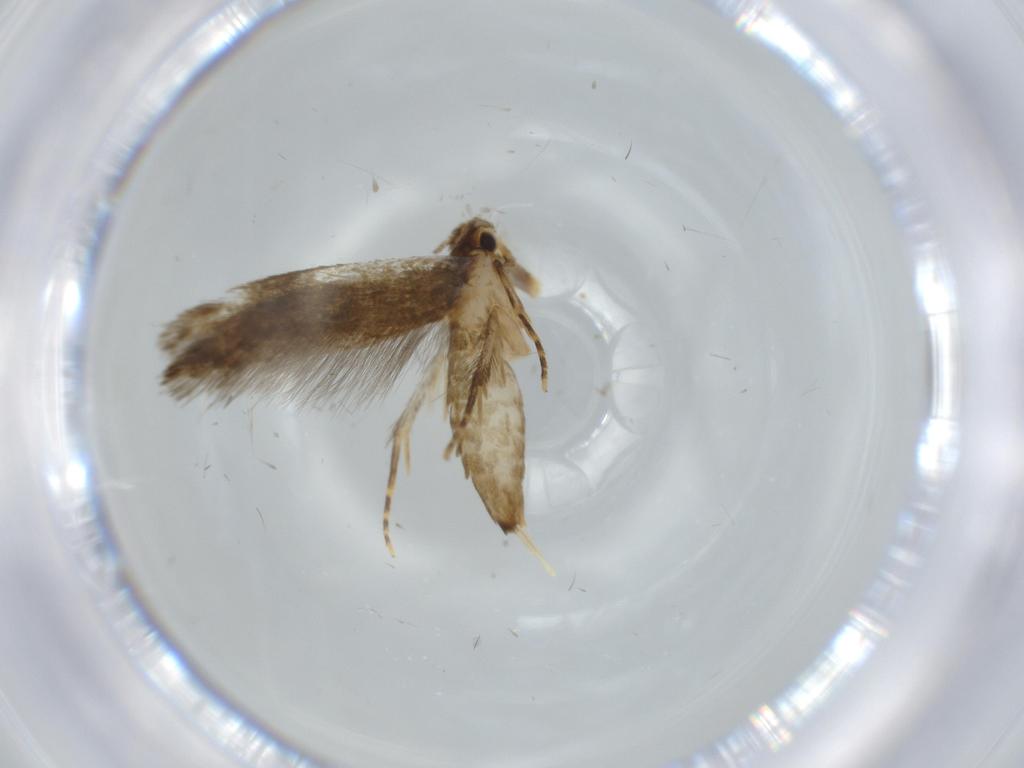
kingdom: Animalia
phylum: Arthropoda
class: Insecta
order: Lepidoptera
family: Tineidae
